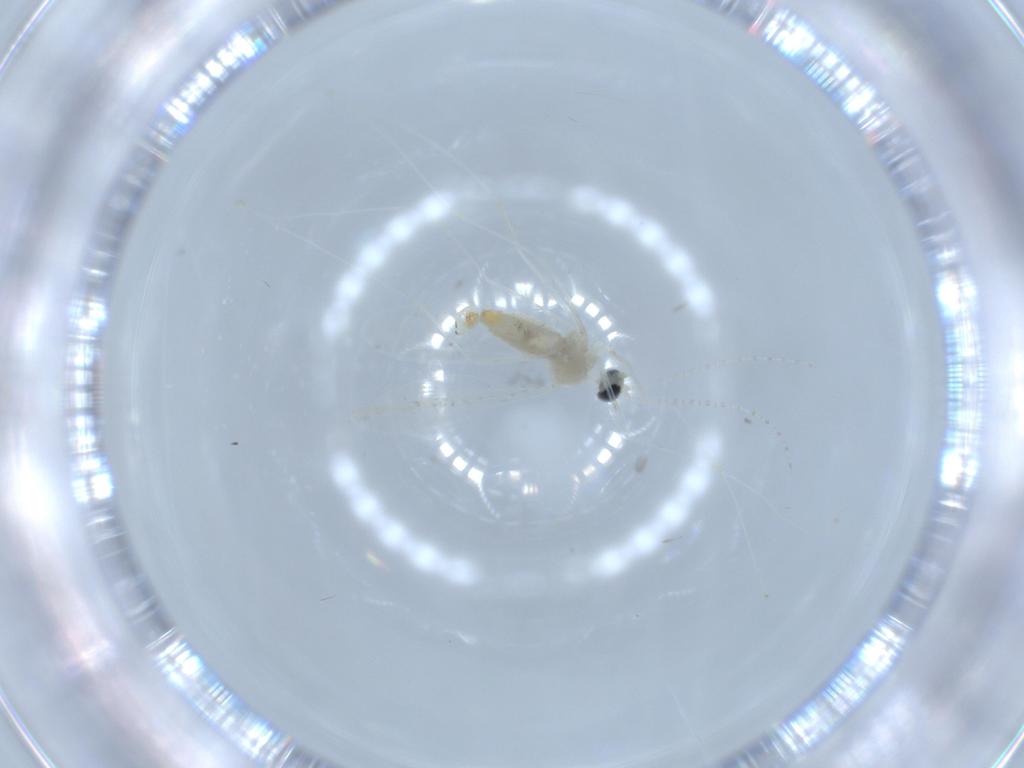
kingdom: Animalia
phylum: Arthropoda
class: Insecta
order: Diptera
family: Cecidomyiidae
